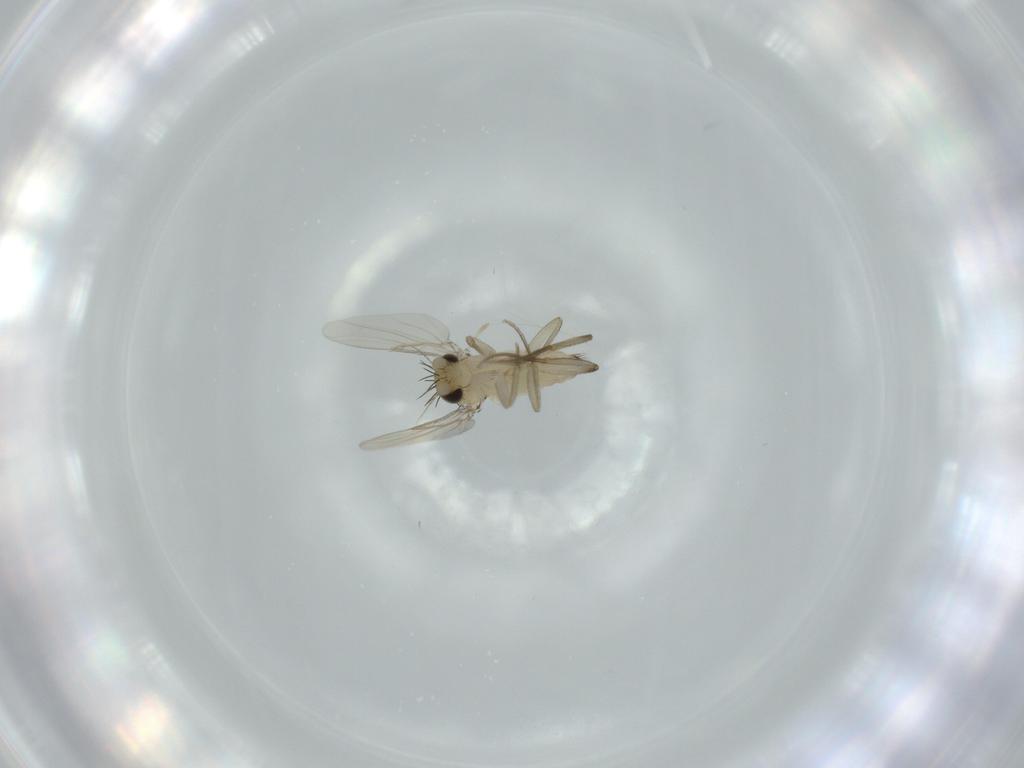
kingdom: Animalia
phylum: Arthropoda
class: Insecta
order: Diptera
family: Phoridae
